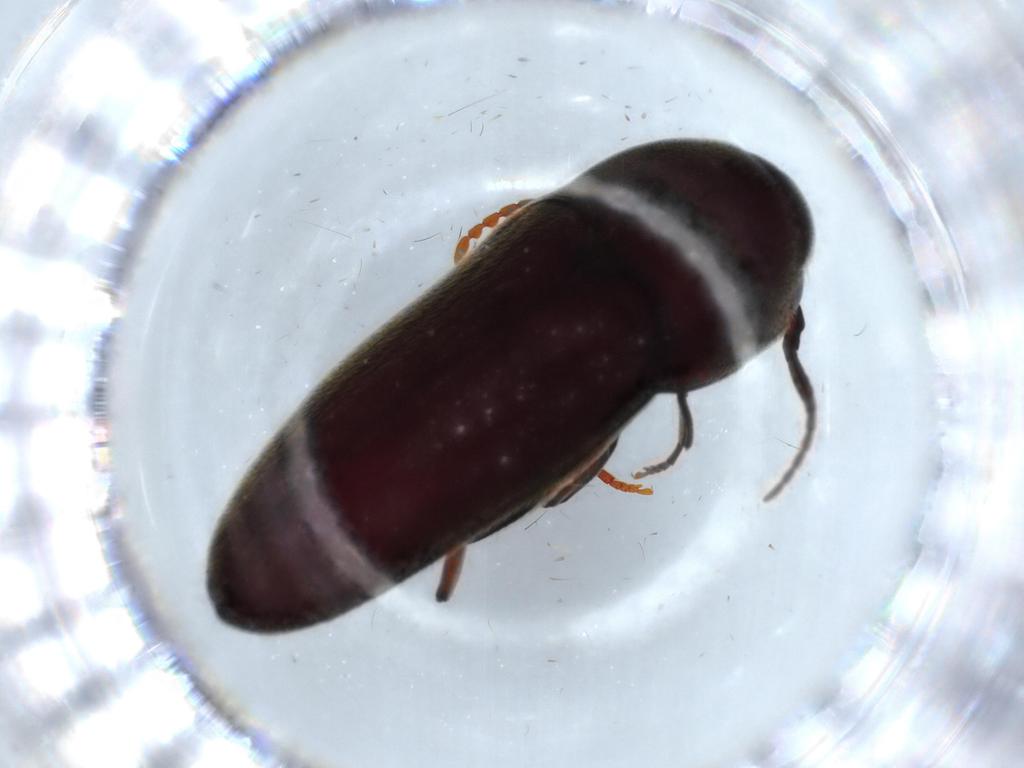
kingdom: Animalia
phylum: Arthropoda
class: Insecta
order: Coleoptera
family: Eucnemidae
